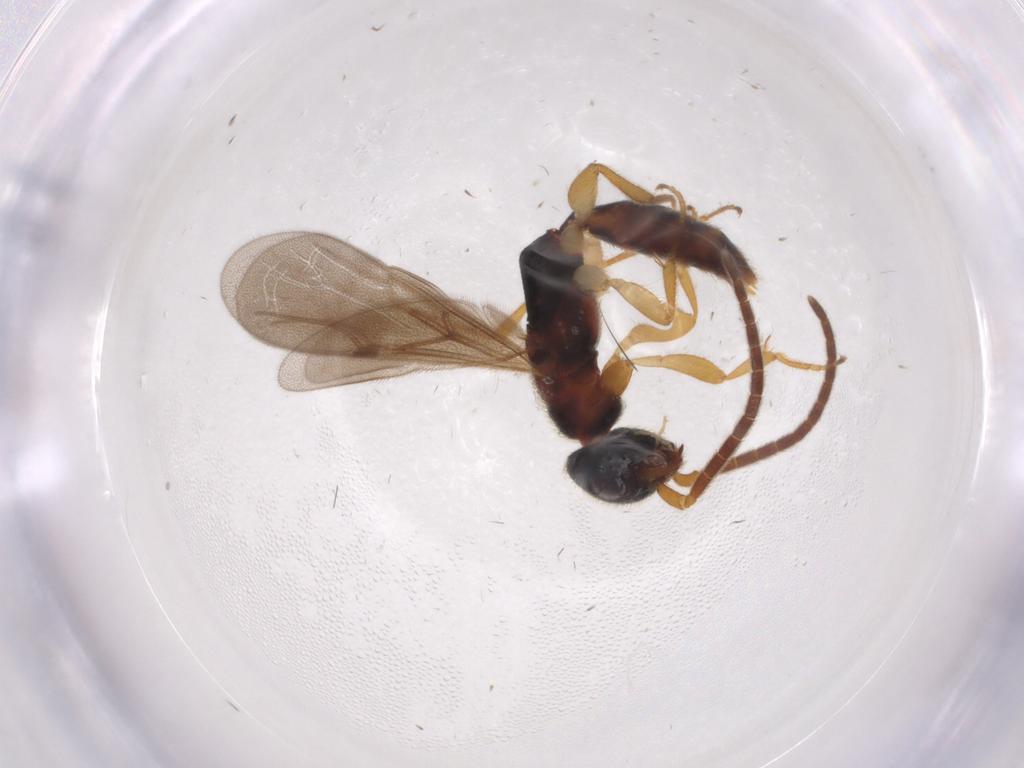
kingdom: Animalia
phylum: Arthropoda
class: Insecta
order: Hymenoptera
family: Bethylidae
